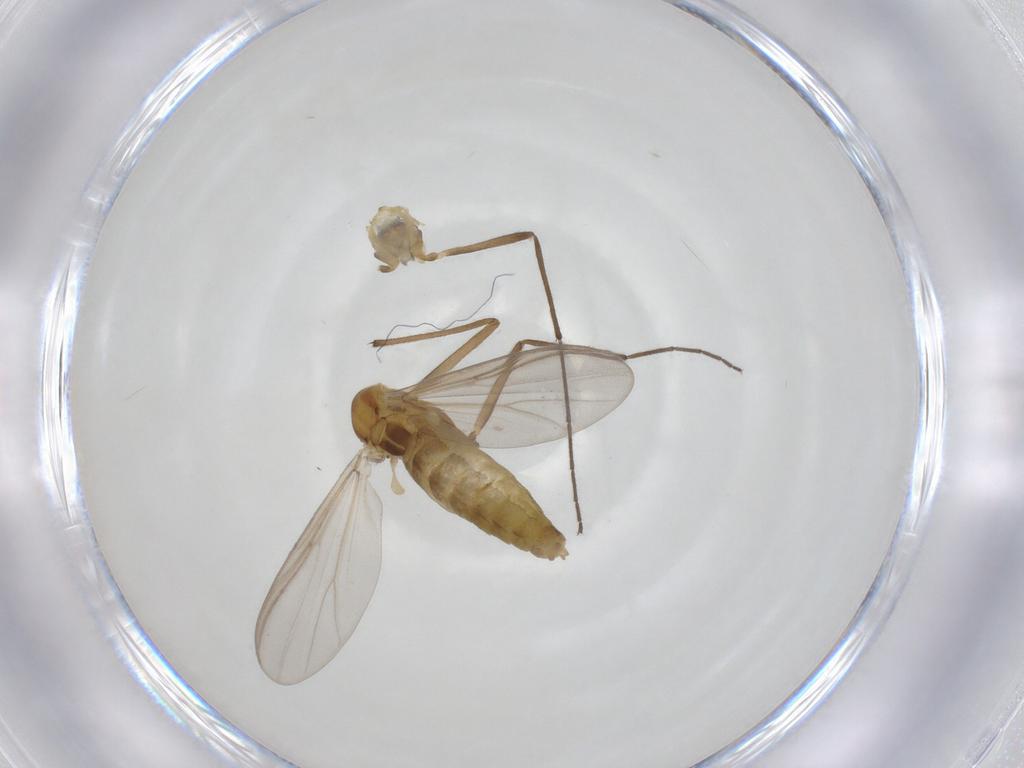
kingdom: Animalia
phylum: Arthropoda
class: Insecta
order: Diptera
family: Chironomidae
